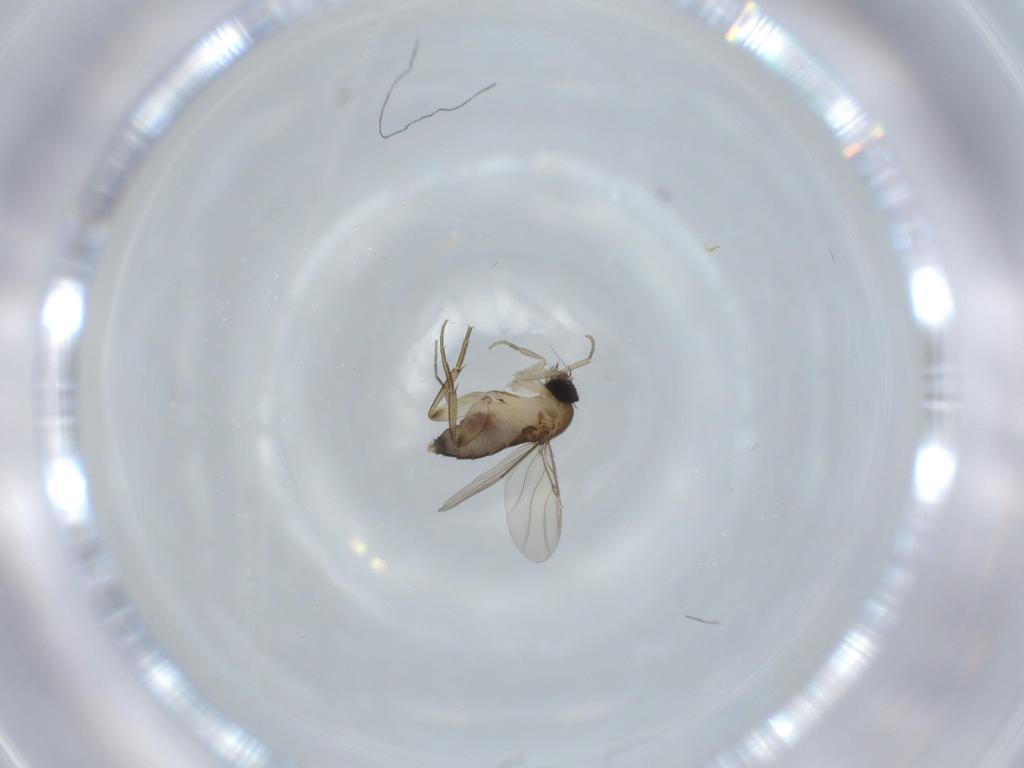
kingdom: Animalia
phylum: Arthropoda
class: Insecta
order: Diptera
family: Phoridae
